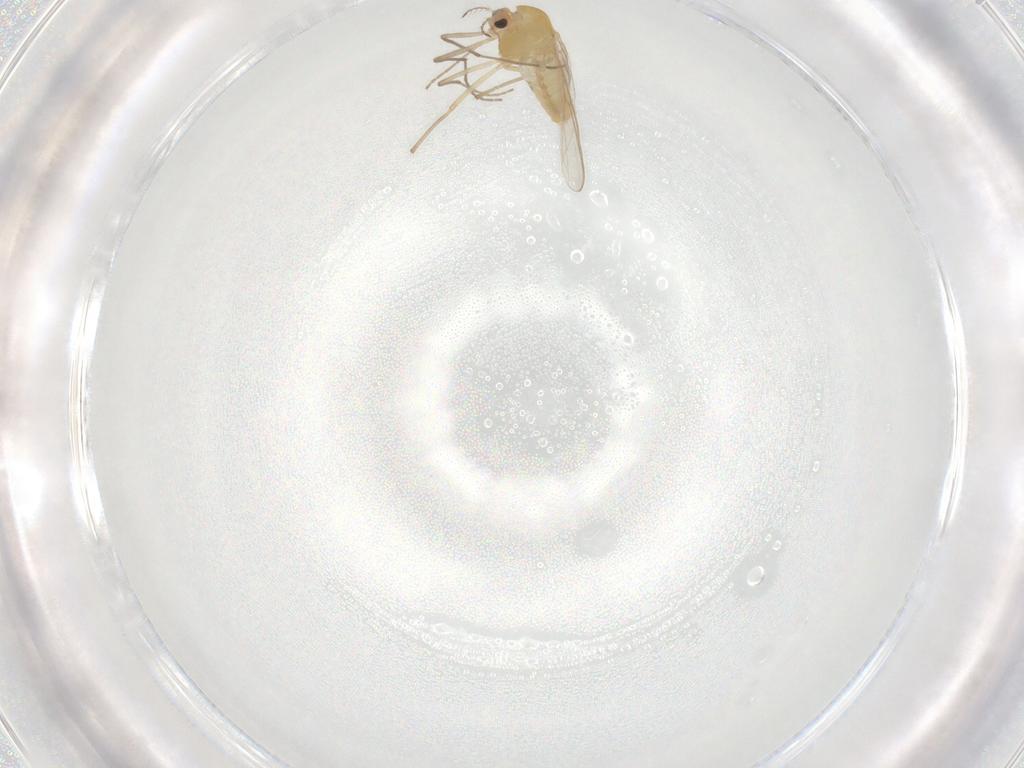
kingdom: Animalia
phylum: Arthropoda
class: Insecta
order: Diptera
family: Chironomidae
